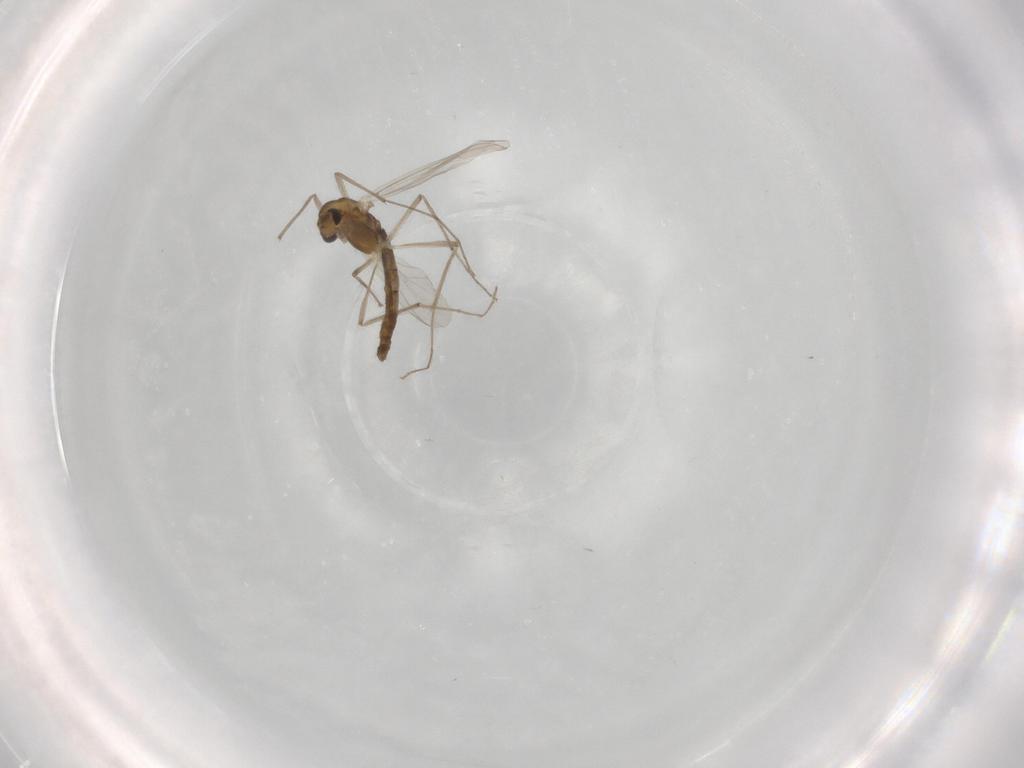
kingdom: Animalia
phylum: Arthropoda
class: Insecta
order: Diptera
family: Chironomidae
